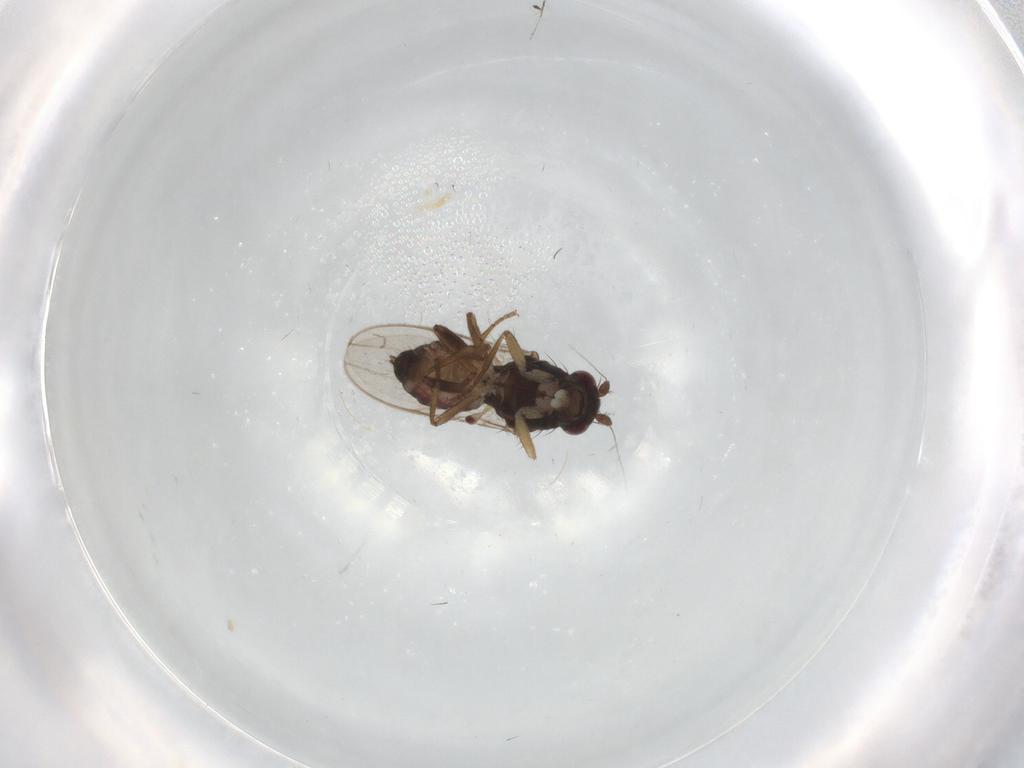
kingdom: Animalia
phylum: Arthropoda
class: Insecta
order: Diptera
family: Sphaeroceridae
